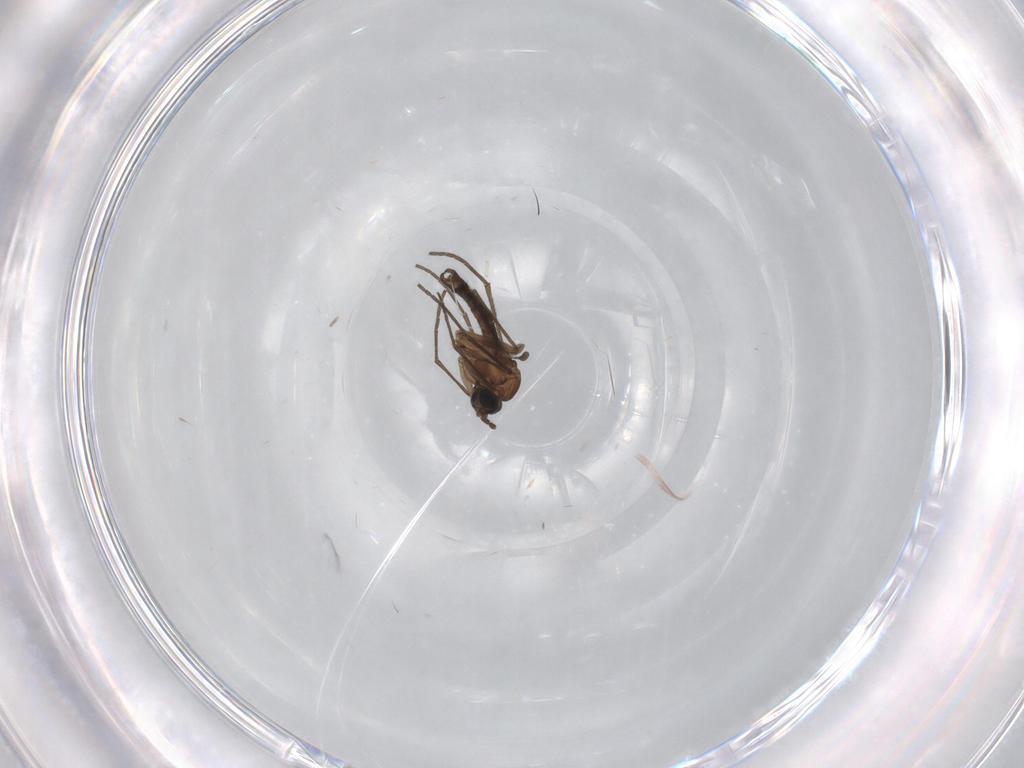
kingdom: Animalia
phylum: Arthropoda
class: Insecta
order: Diptera
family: Sciaridae
